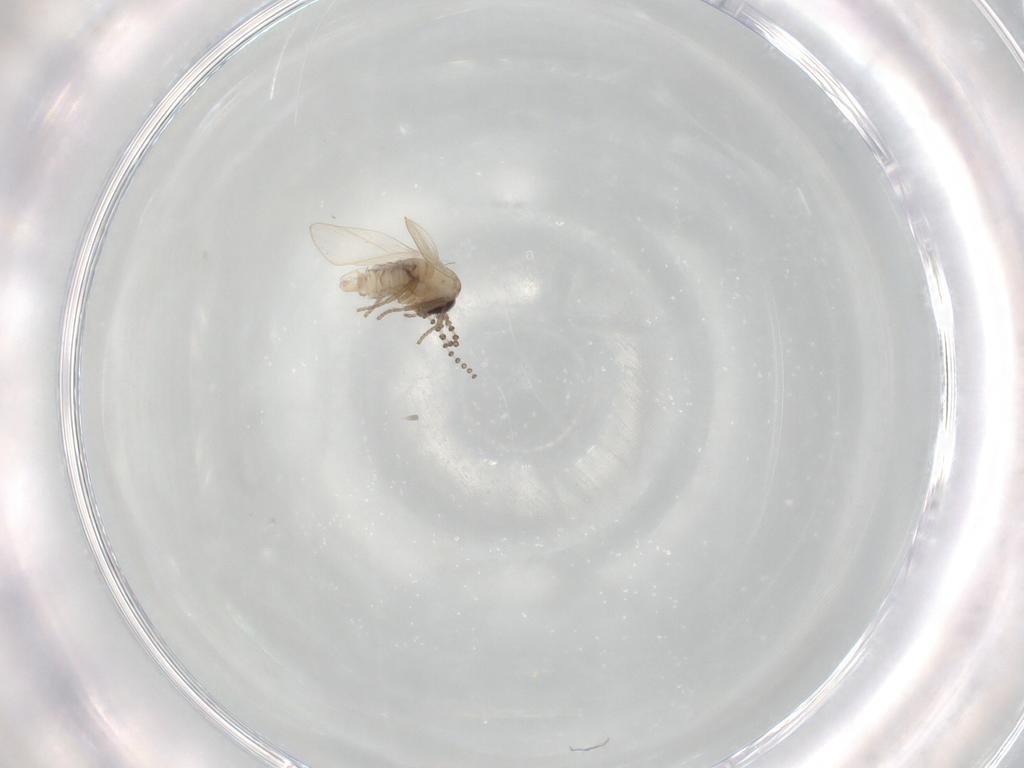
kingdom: Animalia
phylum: Arthropoda
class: Insecta
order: Diptera
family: Psychodidae
